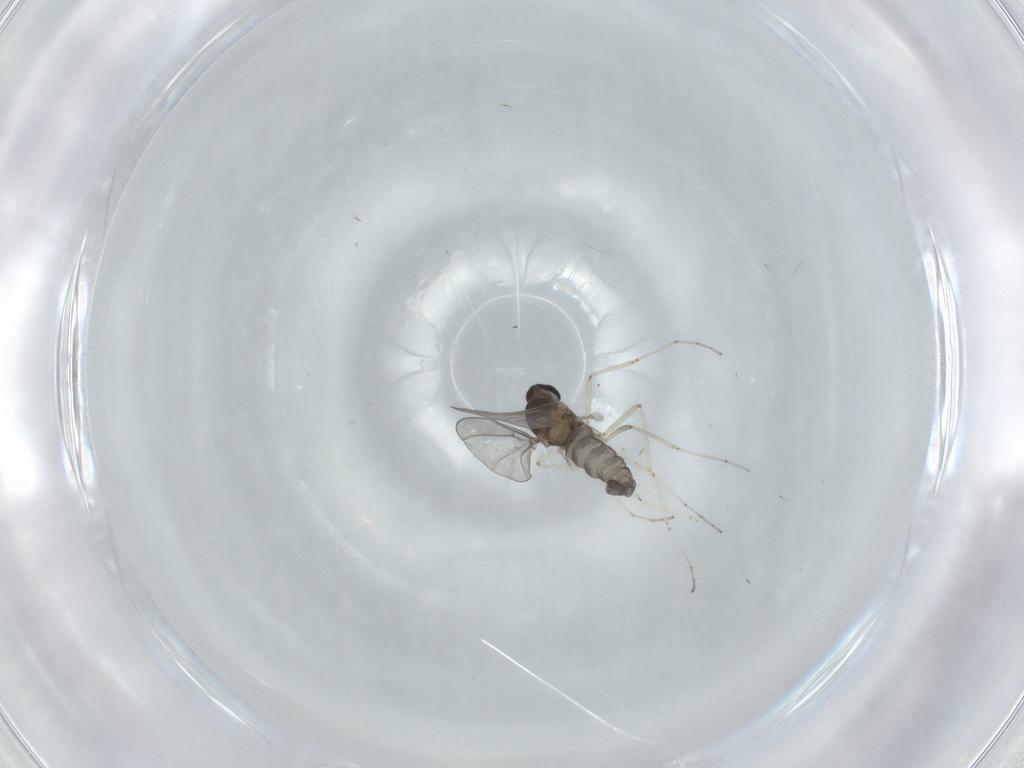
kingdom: Animalia
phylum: Arthropoda
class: Insecta
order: Diptera
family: Cecidomyiidae
